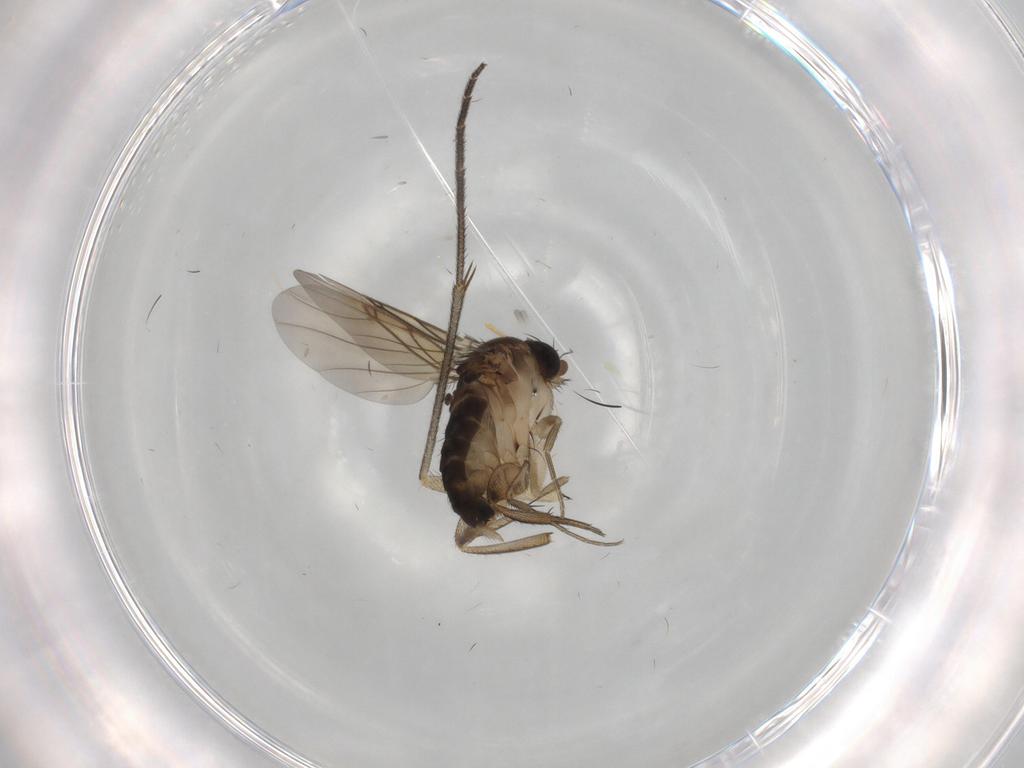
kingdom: Animalia
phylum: Arthropoda
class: Insecta
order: Diptera
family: Phoridae
